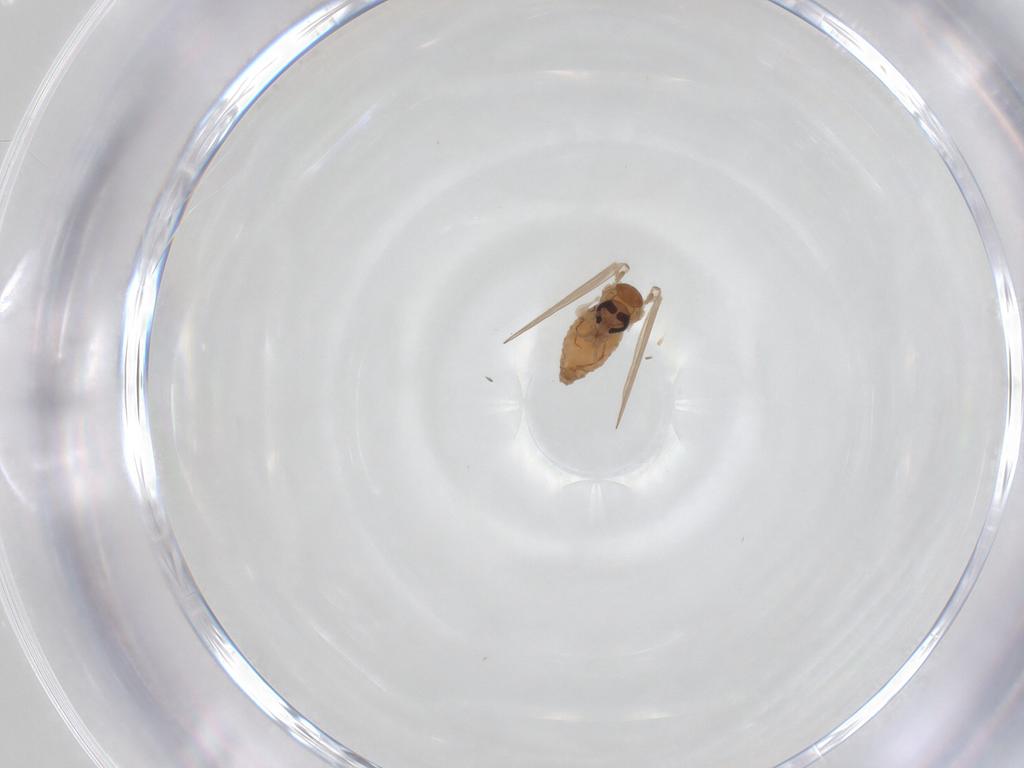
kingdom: Animalia
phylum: Arthropoda
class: Insecta
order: Diptera
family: Psychodidae
